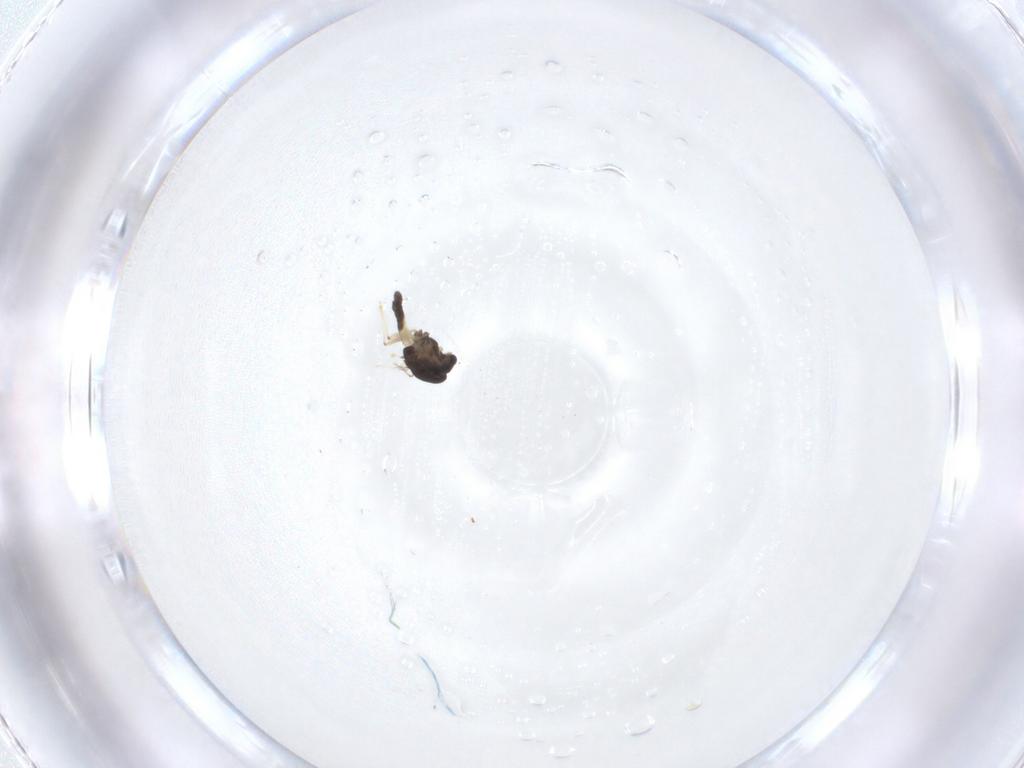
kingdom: Animalia
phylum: Arthropoda
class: Insecta
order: Diptera
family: Chironomidae
